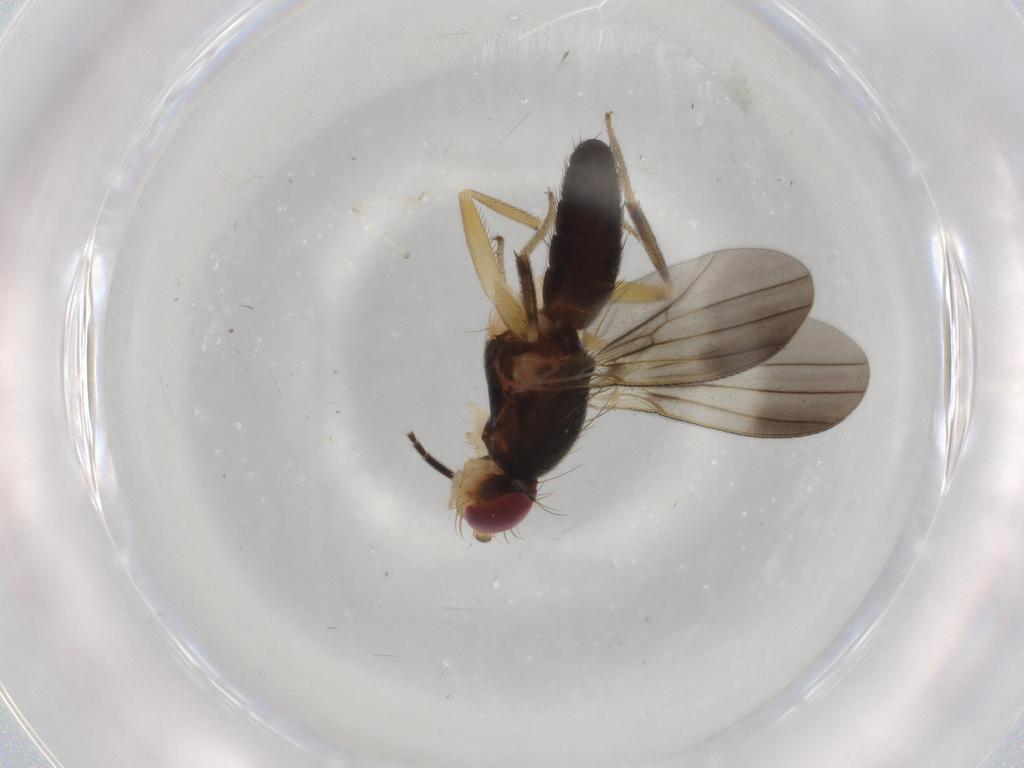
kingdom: Animalia
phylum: Arthropoda
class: Insecta
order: Diptera
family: Clusiidae
